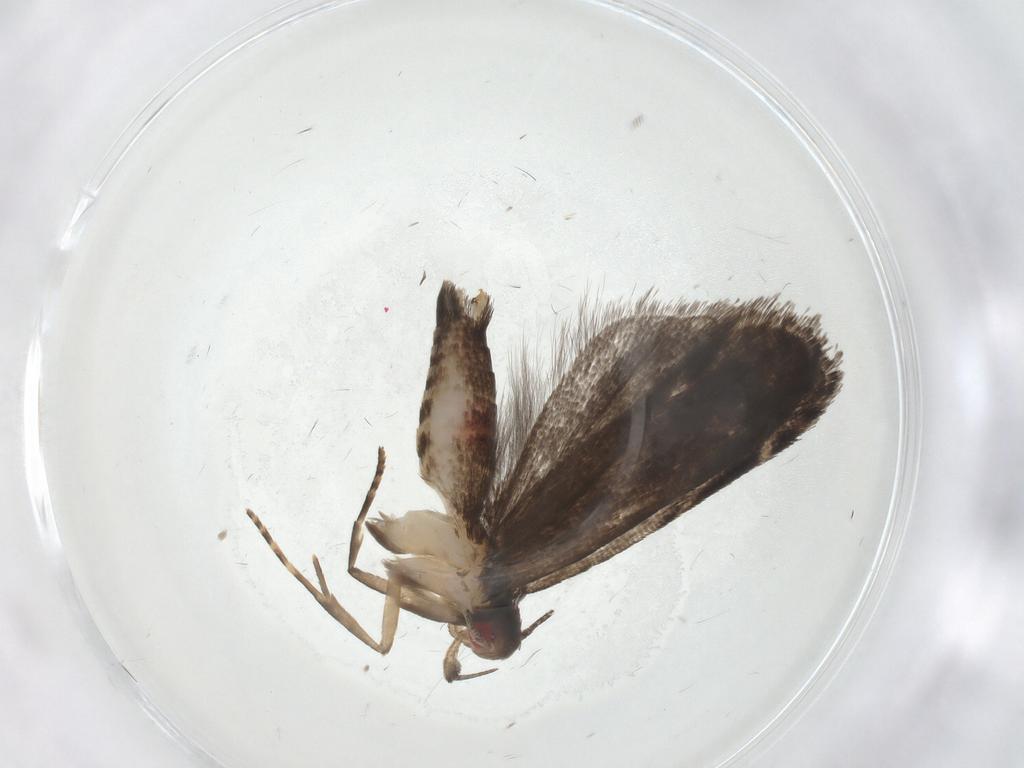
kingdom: Animalia
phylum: Arthropoda
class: Insecta
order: Lepidoptera
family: Gelechiidae
